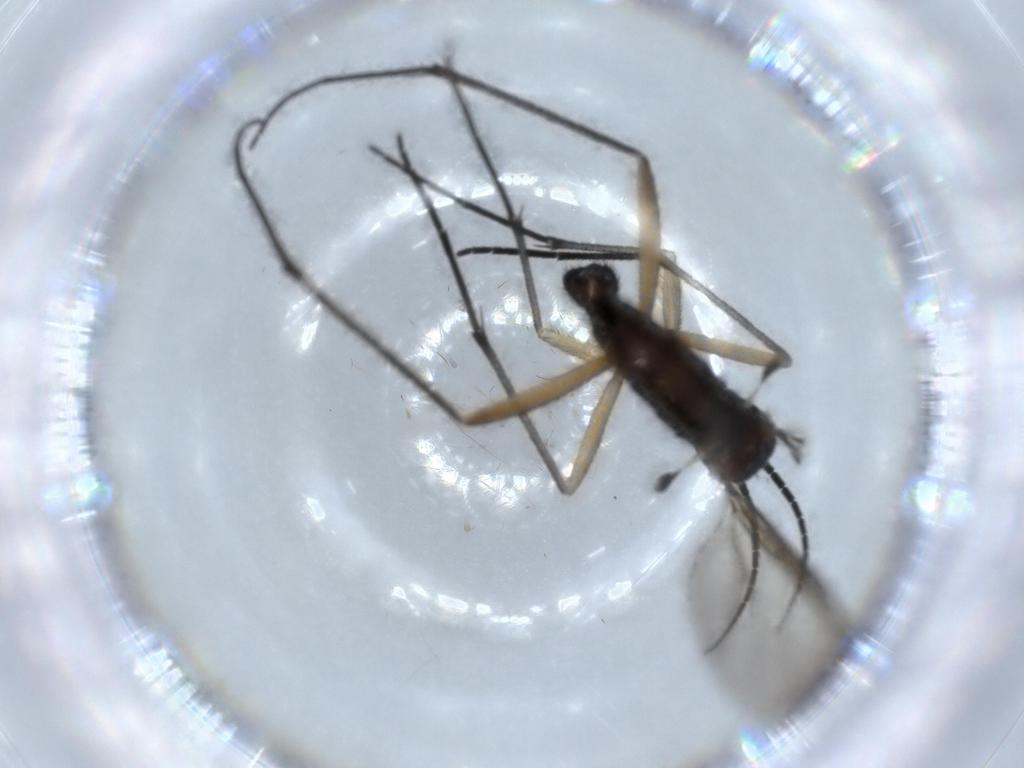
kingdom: Animalia
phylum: Arthropoda
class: Insecta
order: Diptera
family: Sciaridae
